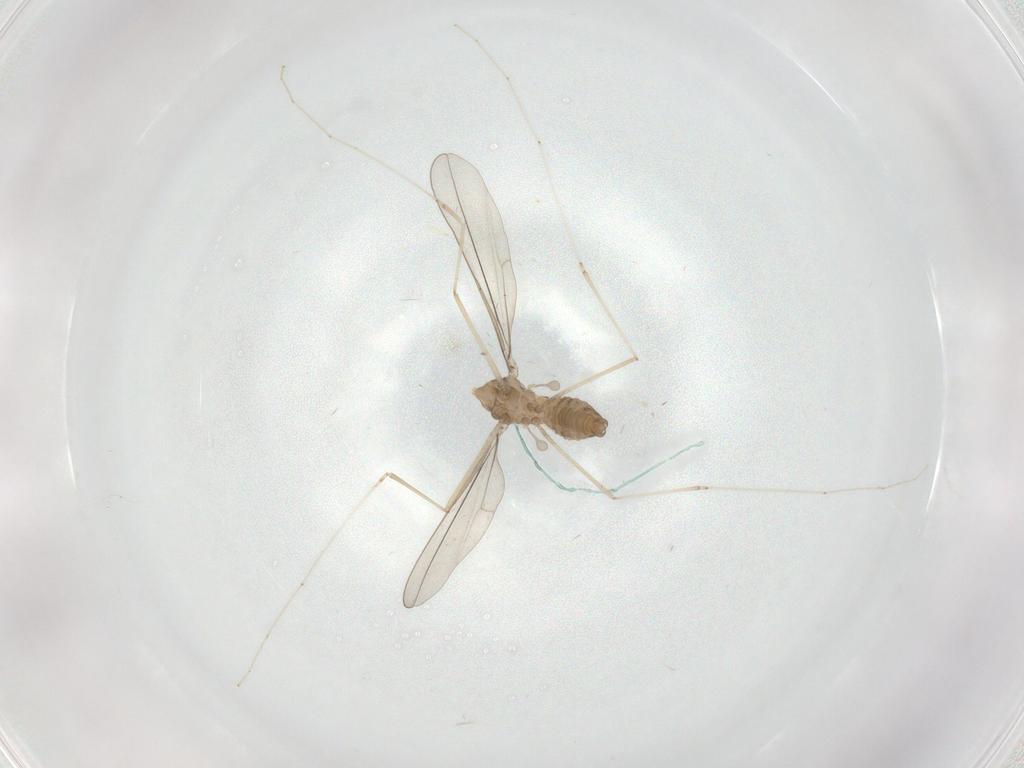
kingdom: Animalia
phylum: Arthropoda
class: Insecta
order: Diptera
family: Cecidomyiidae
